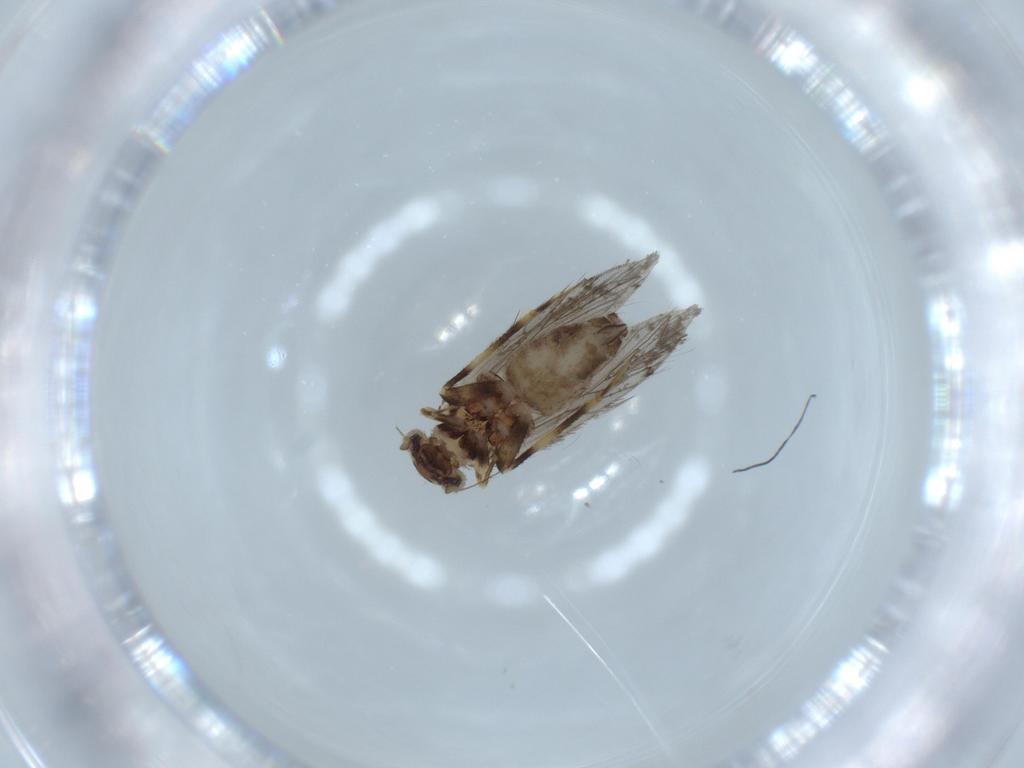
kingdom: Animalia
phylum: Arthropoda
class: Insecta
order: Psocodea
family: Lepidopsocidae
